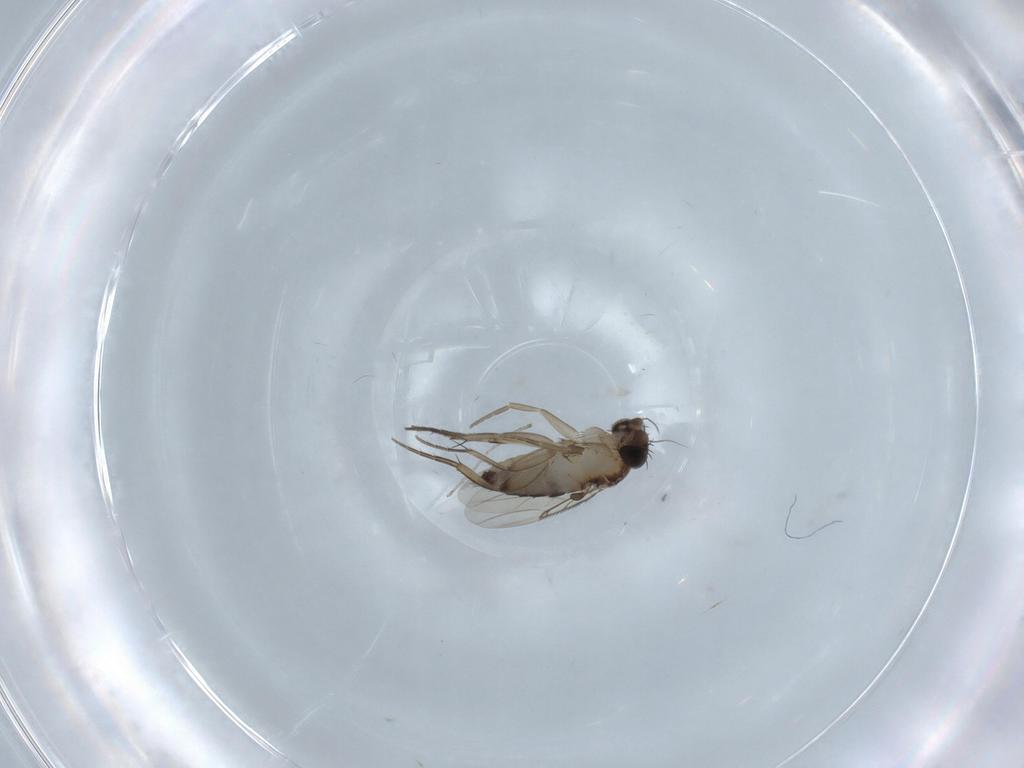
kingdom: Animalia
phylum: Arthropoda
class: Insecta
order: Diptera
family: Phoridae
